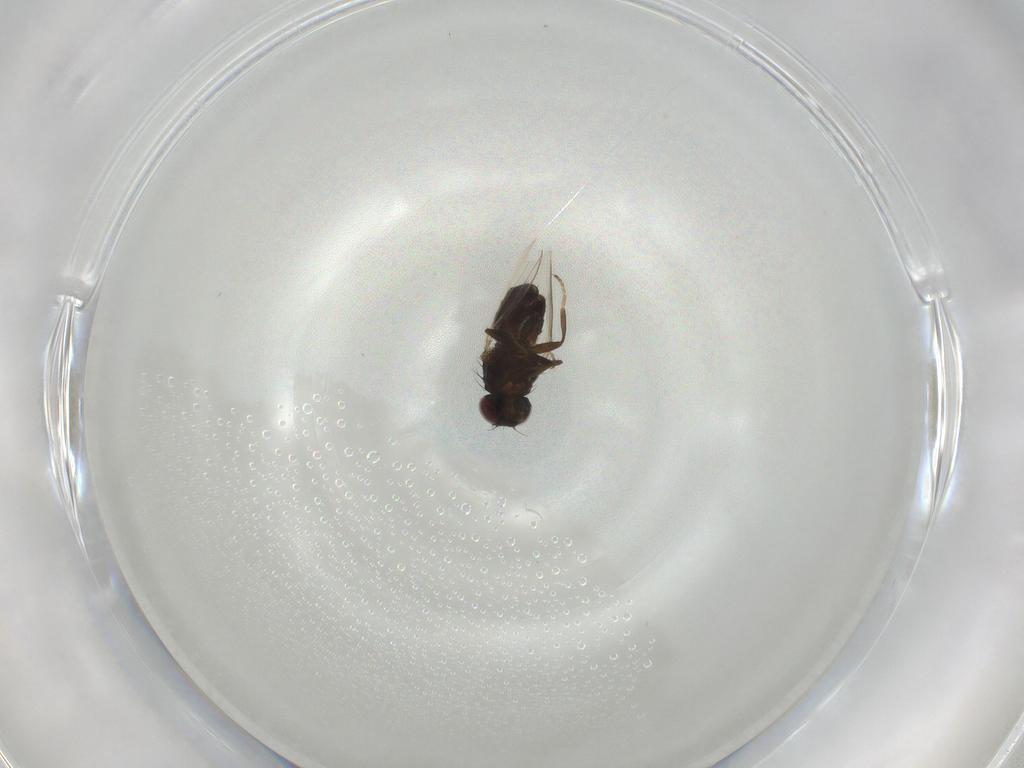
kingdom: Animalia
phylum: Arthropoda
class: Insecta
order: Diptera
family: Carnidae
